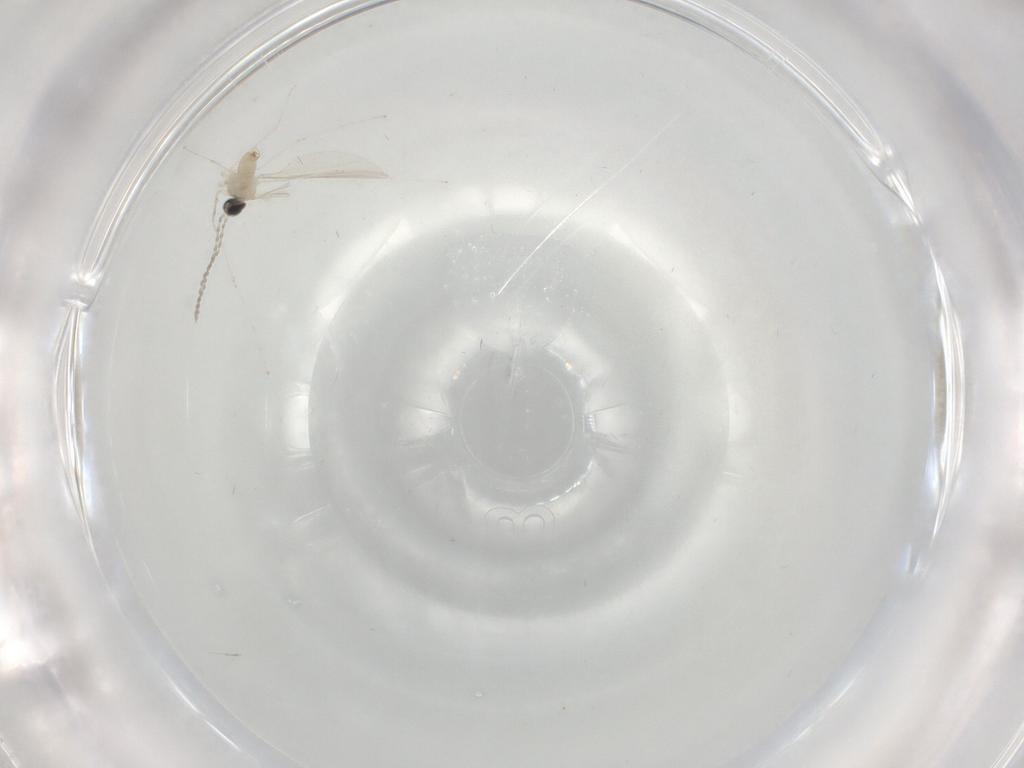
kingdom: Animalia
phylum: Arthropoda
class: Insecta
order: Diptera
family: Cecidomyiidae
